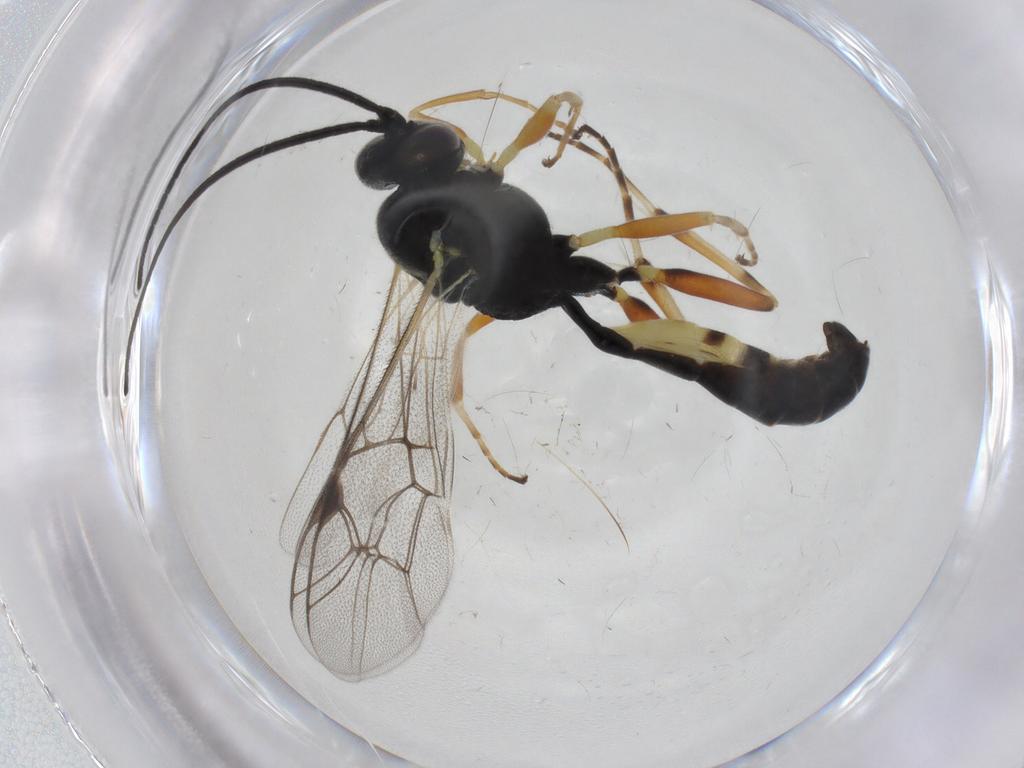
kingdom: Animalia
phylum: Arthropoda
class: Insecta
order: Hymenoptera
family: Ichneumonidae
